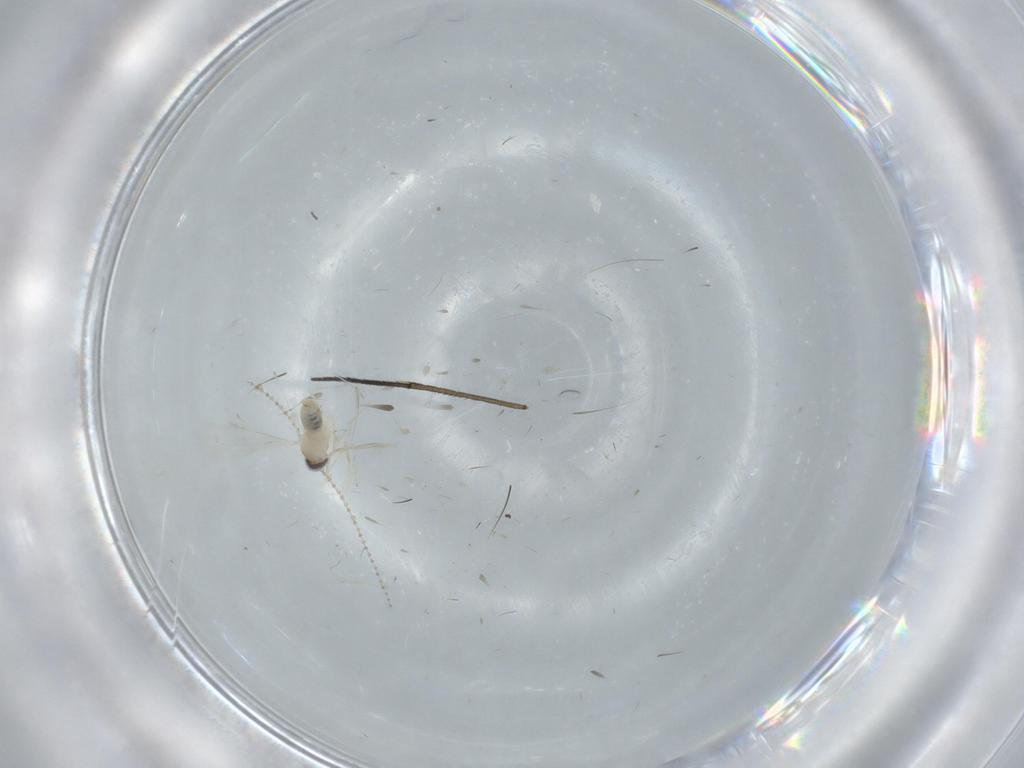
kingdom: Animalia
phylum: Arthropoda
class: Insecta
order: Diptera
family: Cecidomyiidae
